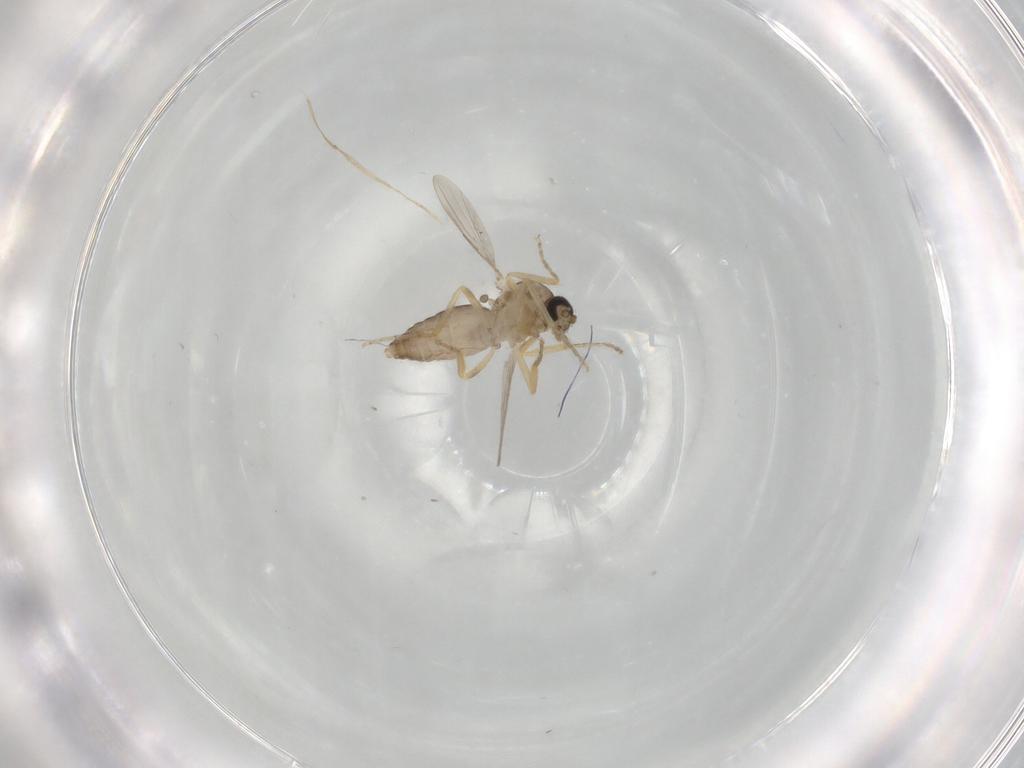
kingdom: Animalia
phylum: Arthropoda
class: Insecta
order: Diptera
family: Ceratopogonidae
